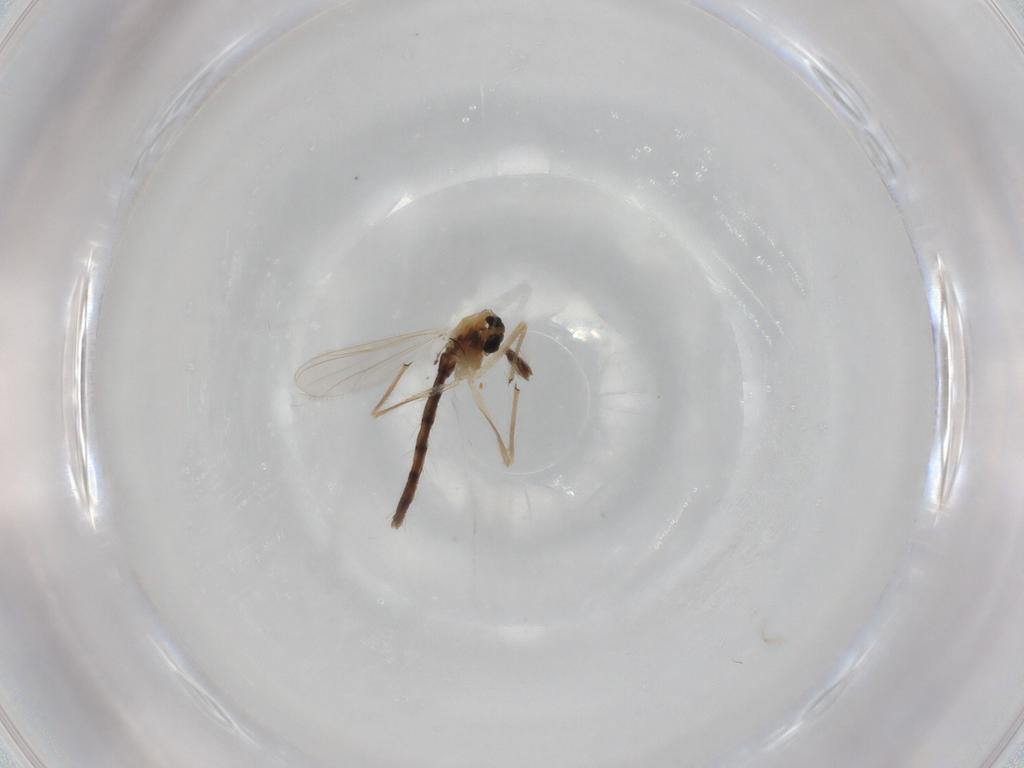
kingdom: Animalia
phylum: Arthropoda
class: Insecta
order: Diptera
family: Chironomidae
